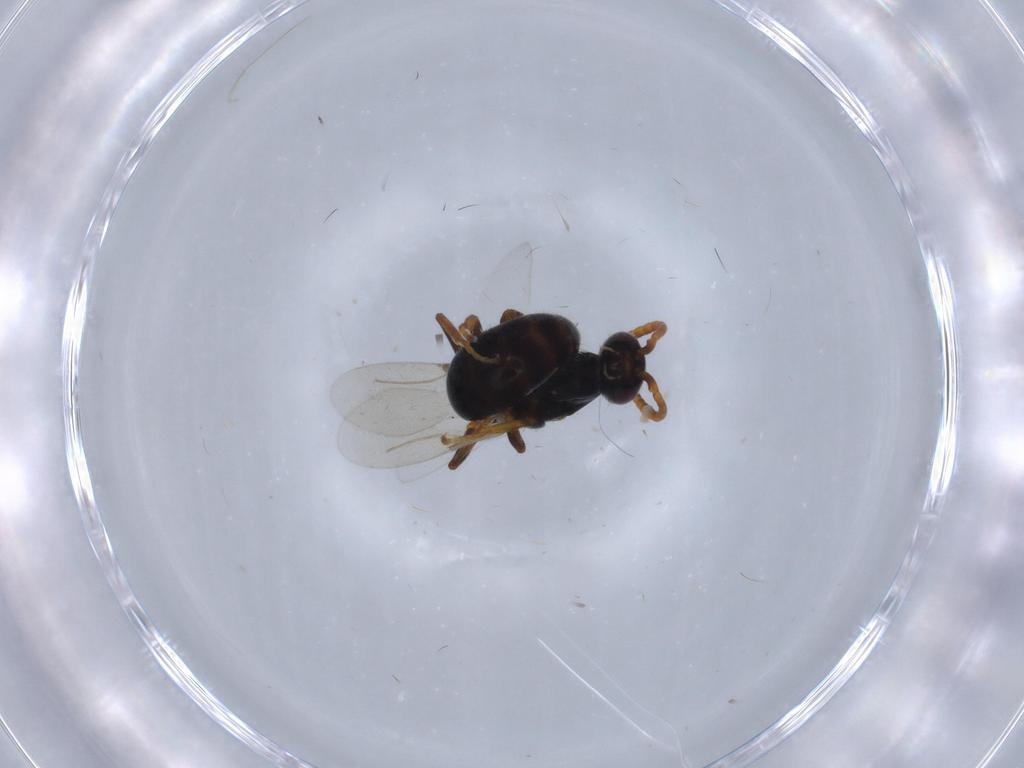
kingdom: Animalia
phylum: Arthropoda
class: Insecta
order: Hymenoptera
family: Bethylidae
